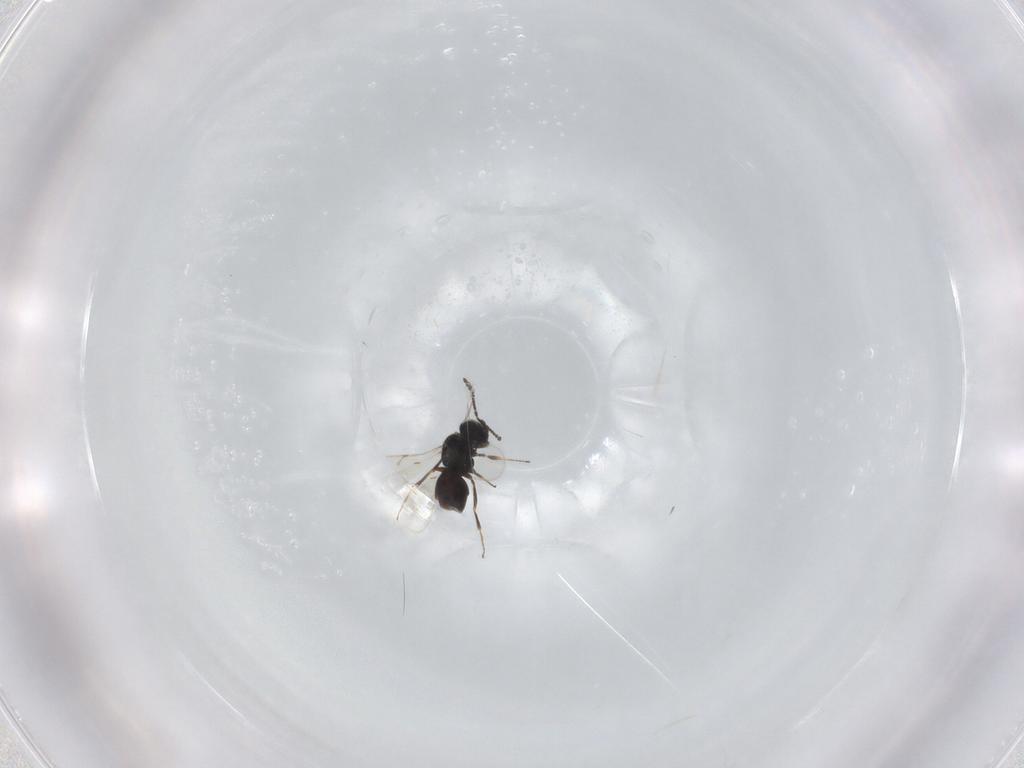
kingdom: Animalia
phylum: Arthropoda
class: Insecta
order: Hymenoptera
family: Scelionidae
